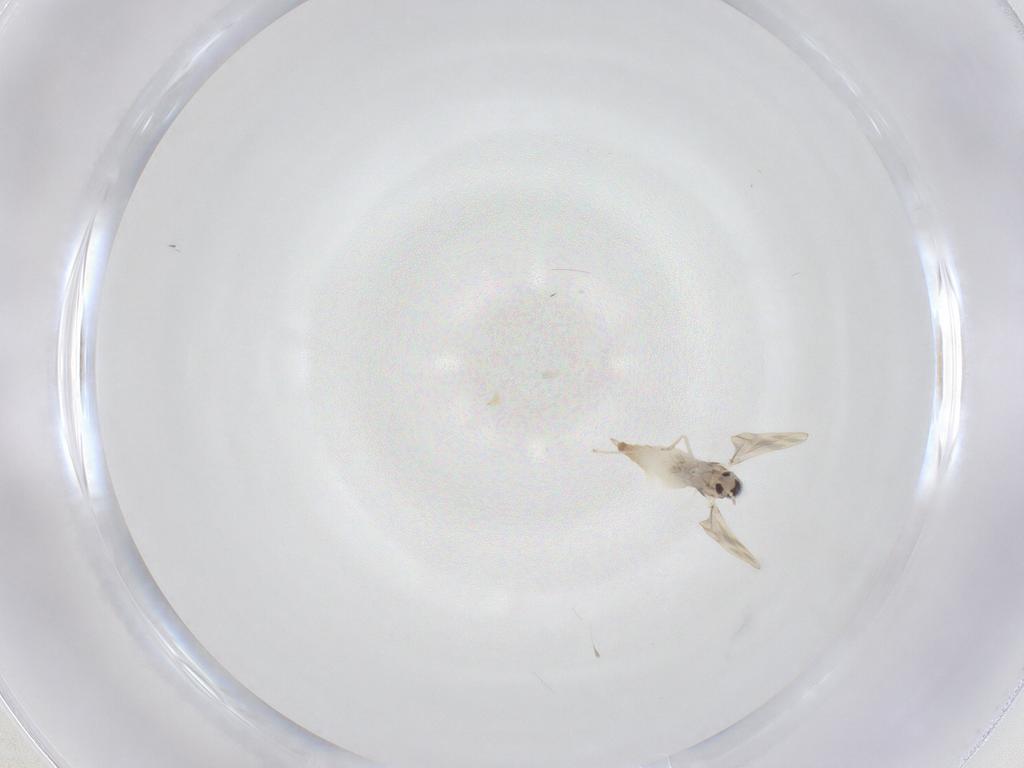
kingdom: Animalia
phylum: Arthropoda
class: Insecta
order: Diptera
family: Cecidomyiidae
